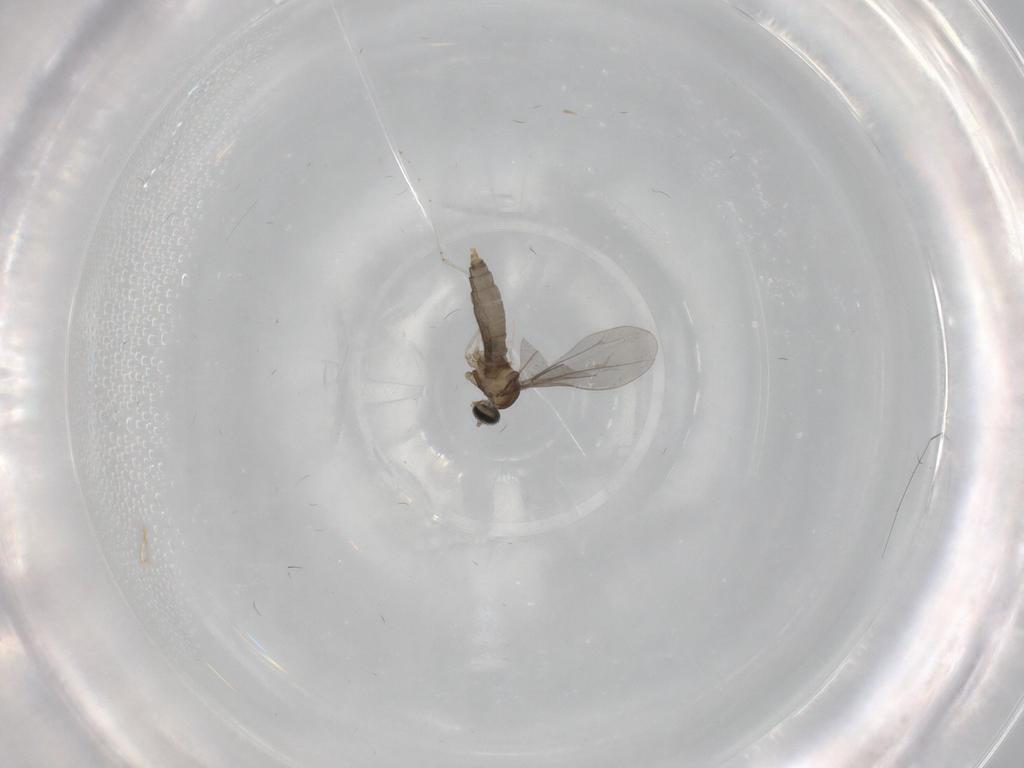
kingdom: Animalia
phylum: Arthropoda
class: Insecta
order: Diptera
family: Cecidomyiidae
